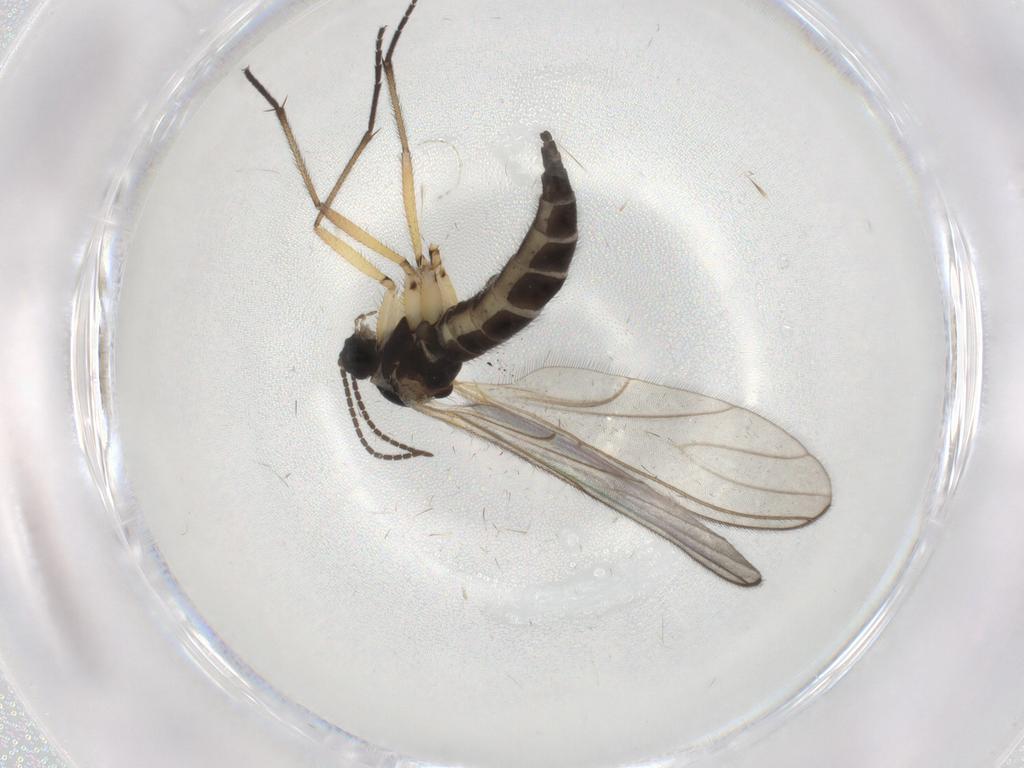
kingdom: Animalia
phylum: Arthropoda
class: Insecta
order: Diptera
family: Sciaridae
